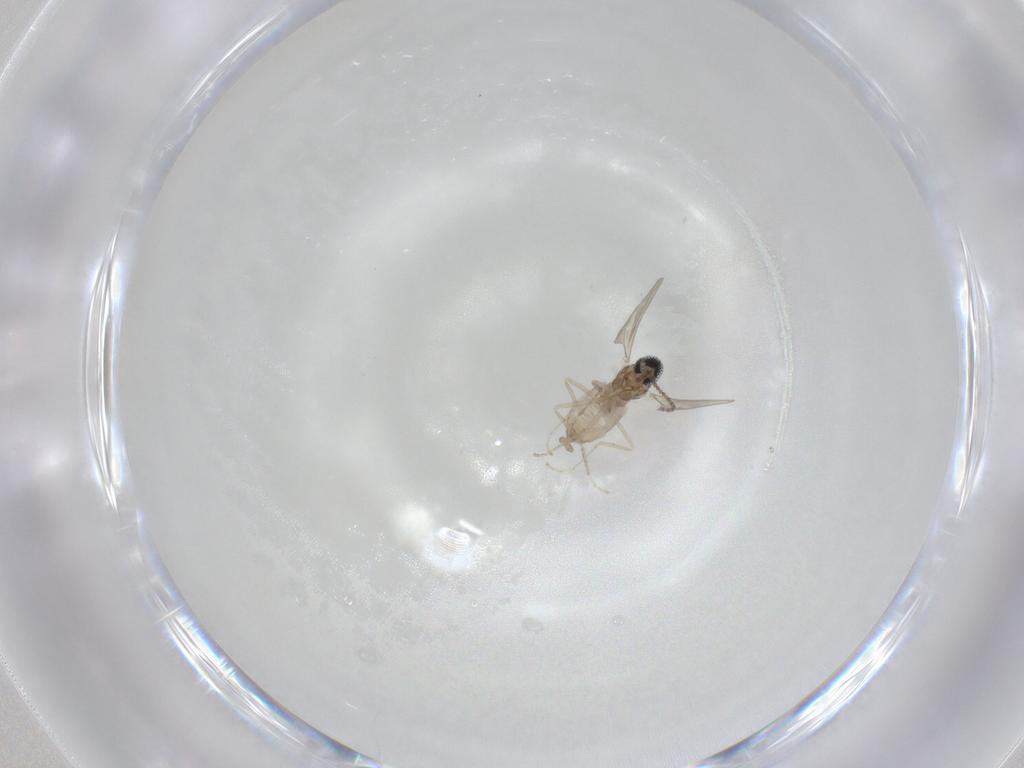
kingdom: Animalia
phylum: Arthropoda
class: Insecta
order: Diptera
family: Cecidomyiidae
